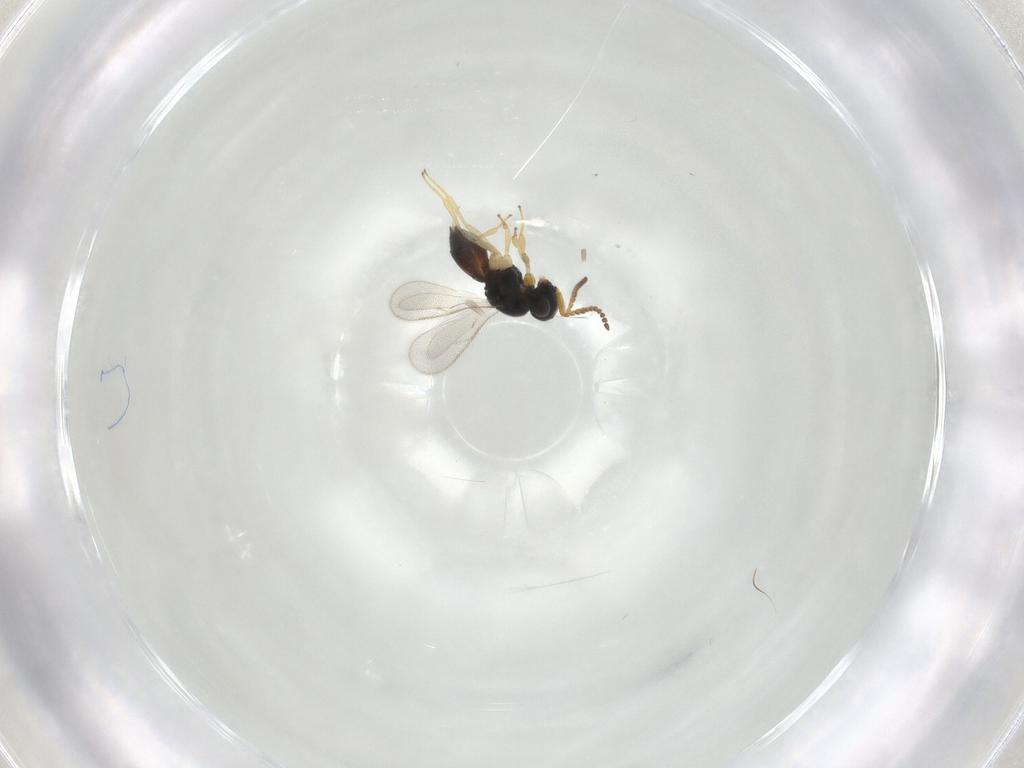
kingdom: Animalia
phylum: Arthropoda
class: Insecta
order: Hymenoptera
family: Scelionidae
